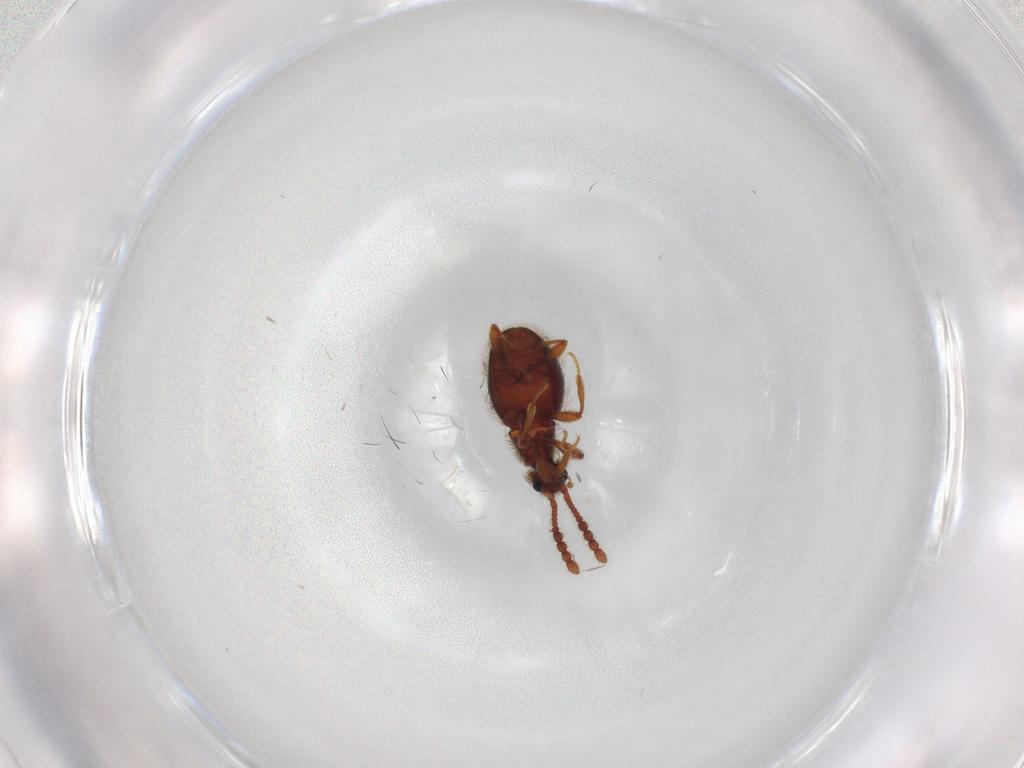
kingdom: Animalia
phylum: Arthropoda
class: Insecta
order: Coleoptera
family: Staphylinidae
